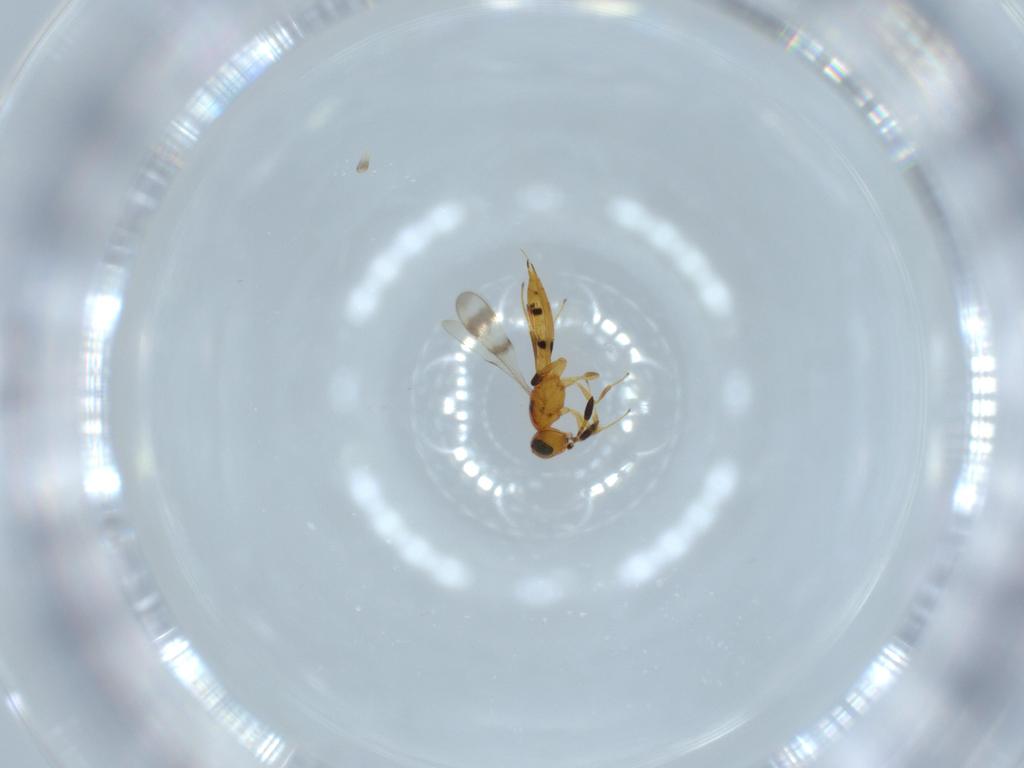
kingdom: Animalia
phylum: Arthropoda
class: Insecta
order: Hymenoptera
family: Scelionidae
